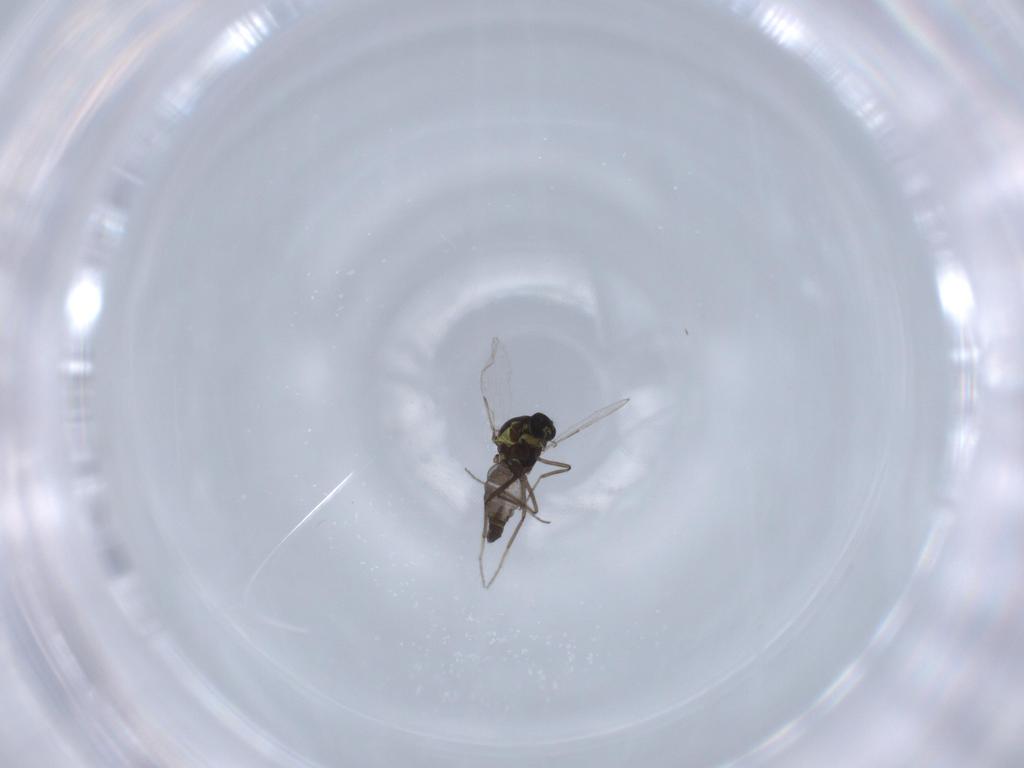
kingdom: Animalia
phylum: Arthropoda
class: Insecta
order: Diptera
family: Ceratopogonidae
